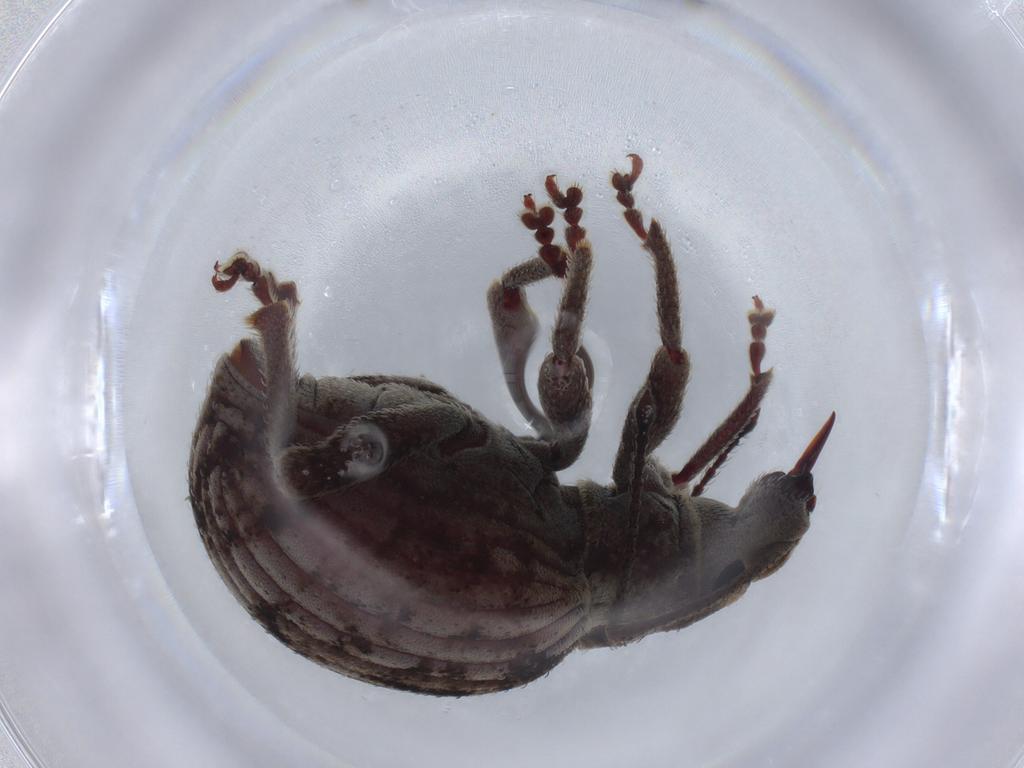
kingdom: Animalia
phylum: Arthropoda
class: Insecta
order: Coleoptera
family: Curculionidae
